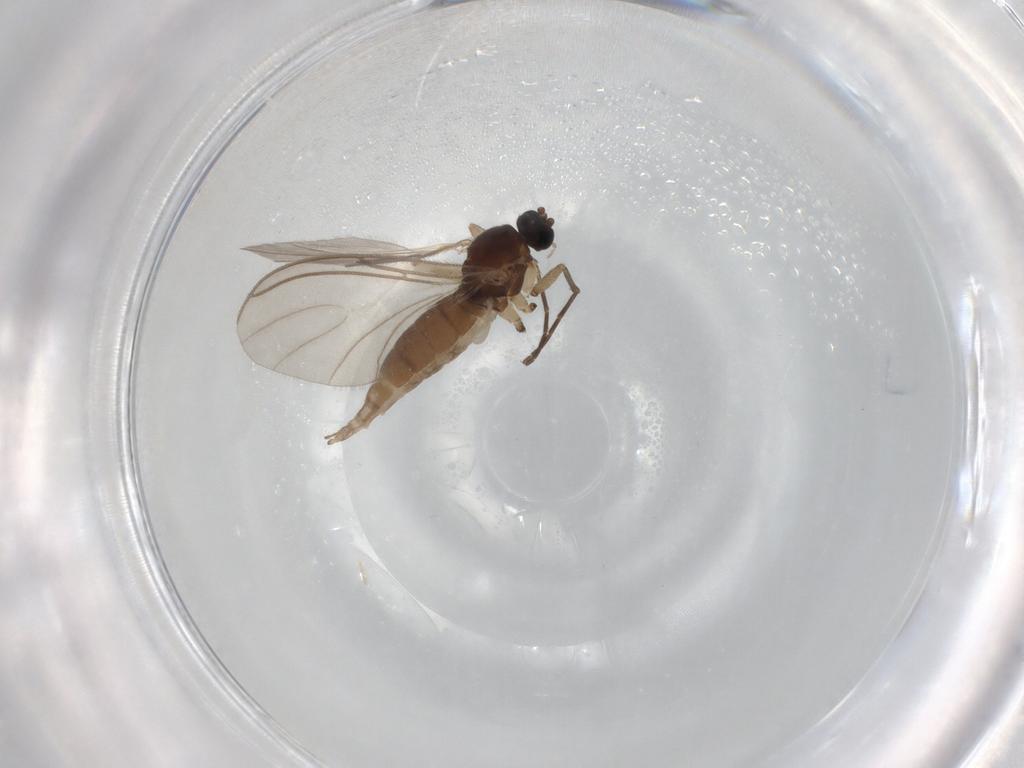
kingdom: Animalia
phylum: Arthropoda
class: Insecta
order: Diptera
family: Sciaridae
